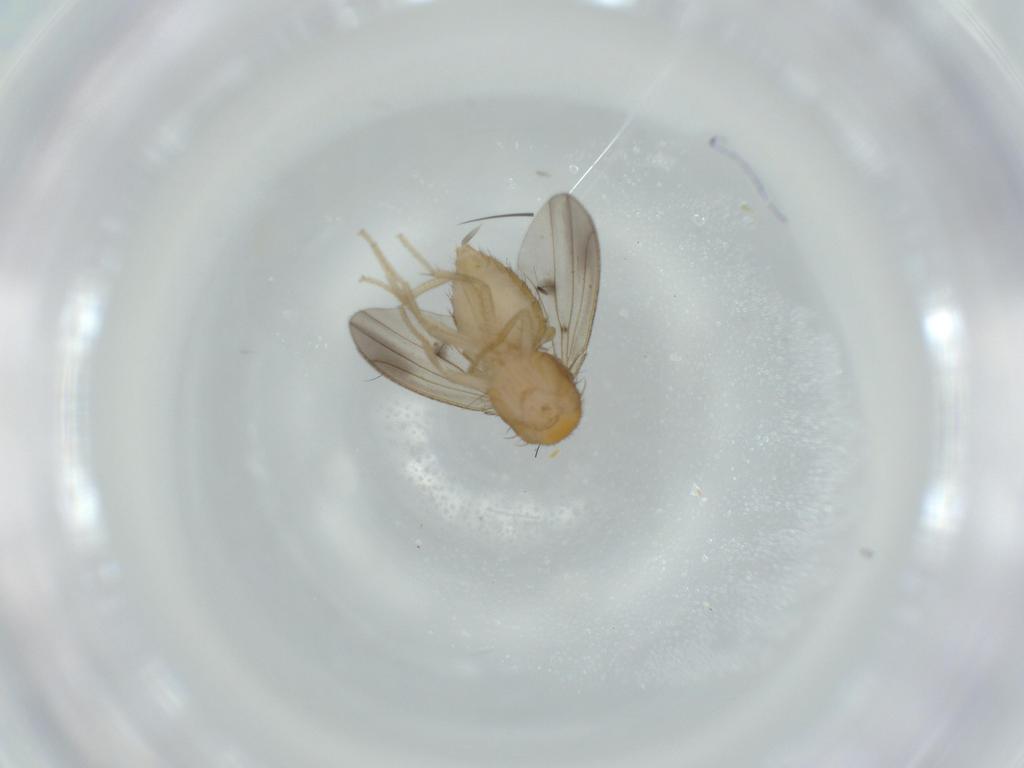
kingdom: Animalia
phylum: Arthropoda
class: Insecta
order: Diptera
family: Drosophilidae
